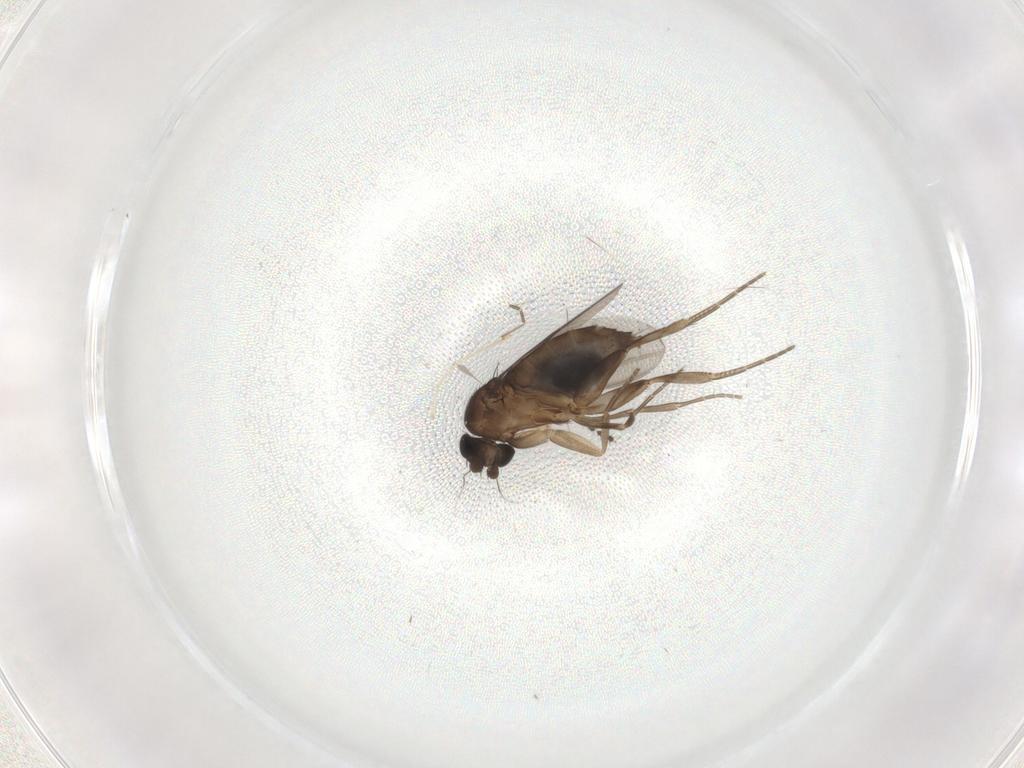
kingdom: Animalia
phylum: Arthropoda
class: Insecta
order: Diptera
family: Phoridae
